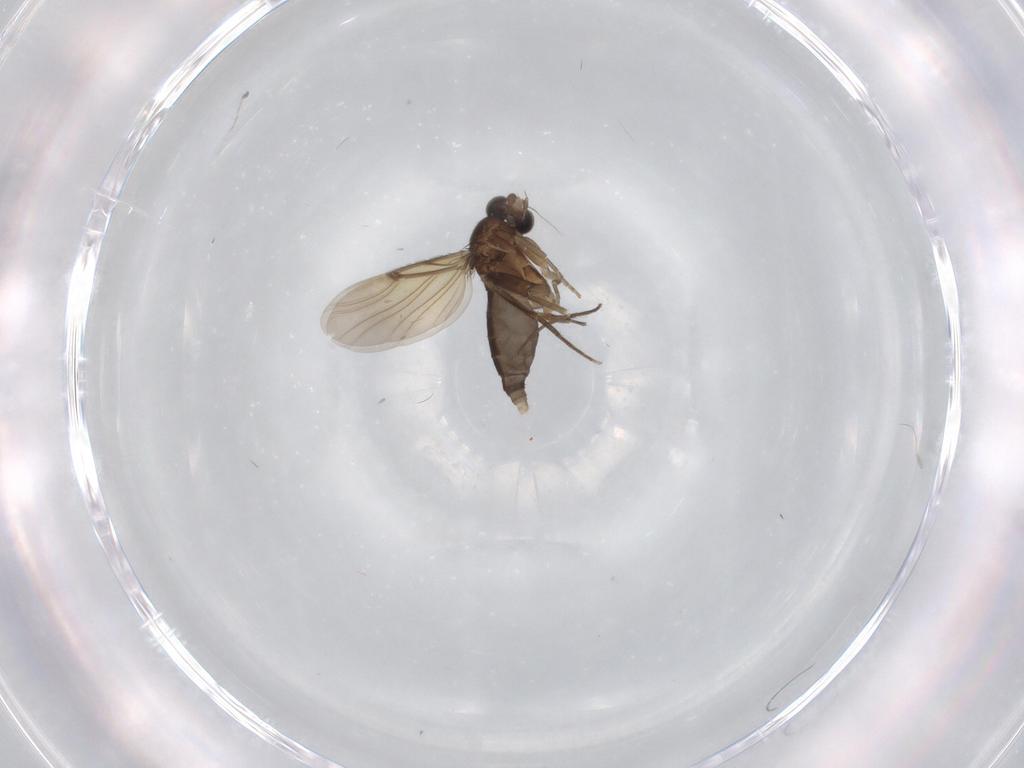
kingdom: Animalia
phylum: Arthropoda
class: Insecta
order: Diptera
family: Phoridae
